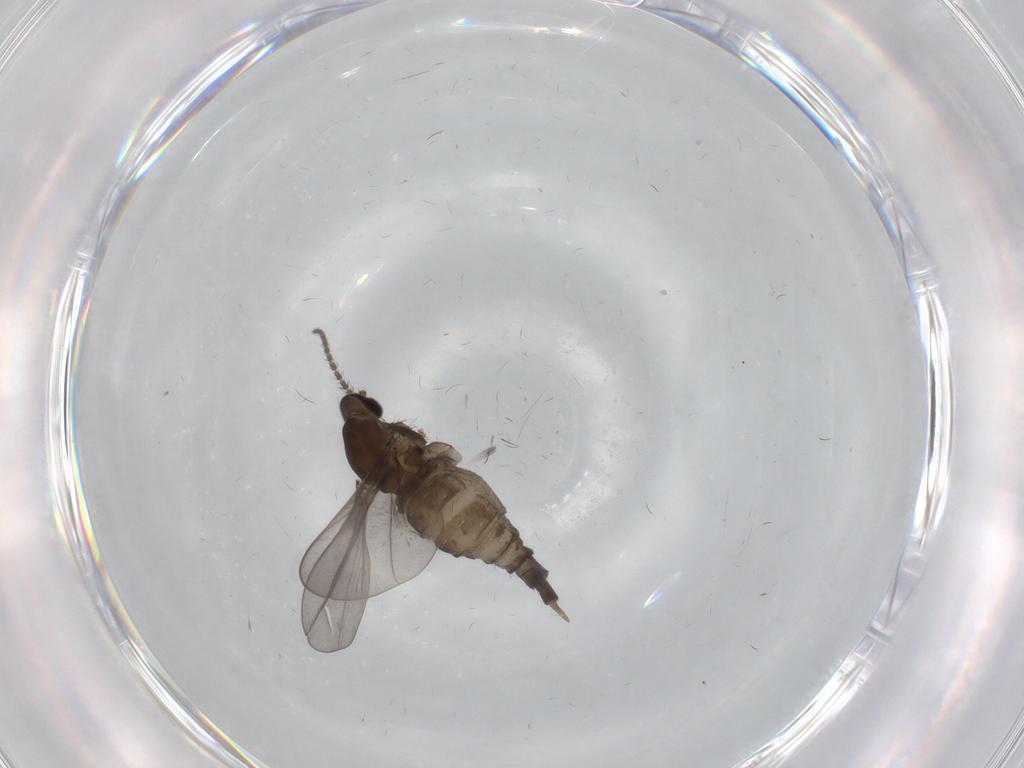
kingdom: Animalia
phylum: Arthropoda
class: Insecta
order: Diptera
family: Cecidomyiidae
